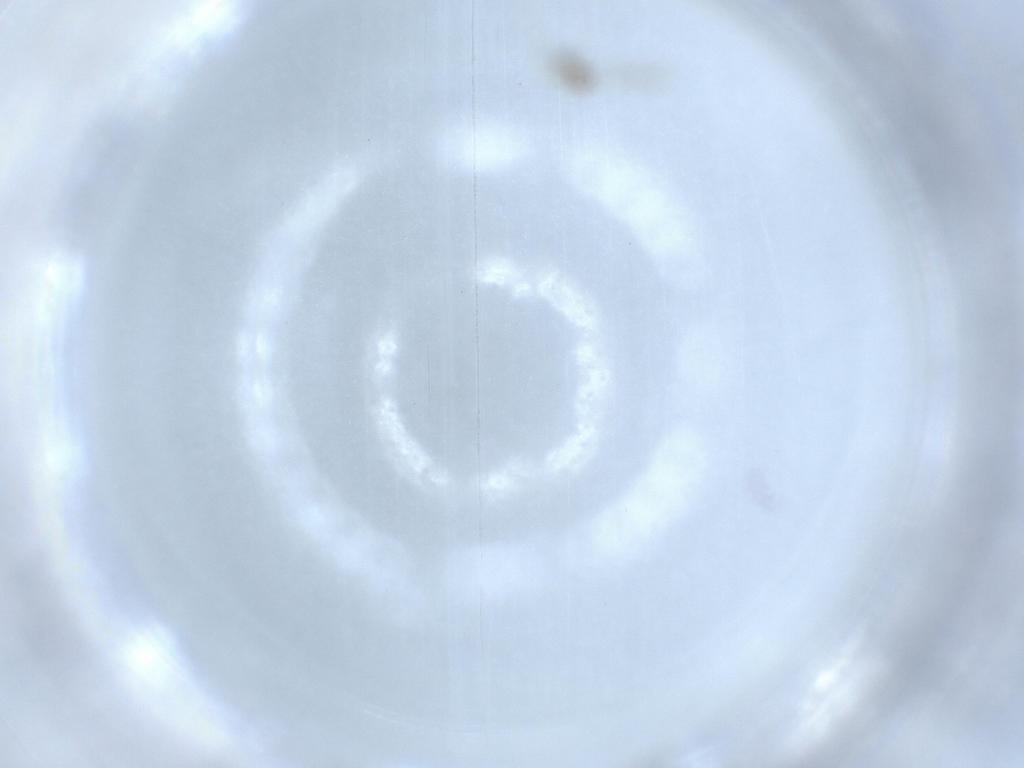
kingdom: Animalia
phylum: Arthropoda
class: Insecta
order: Diptera
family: Cecidomyiidae
